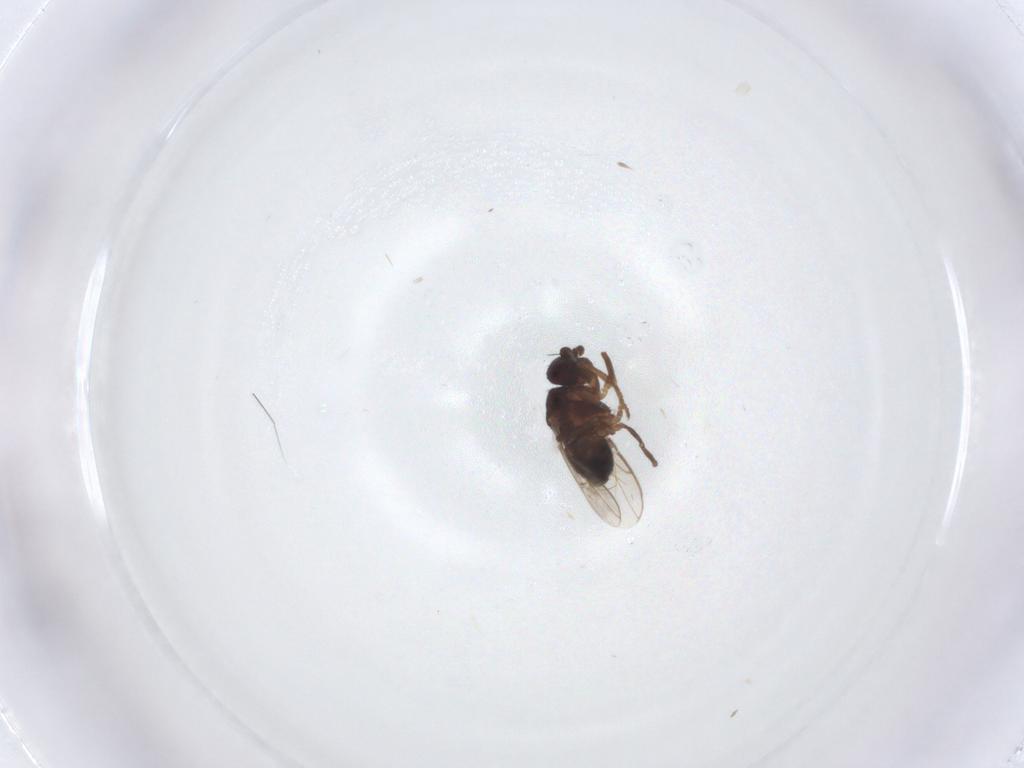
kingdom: Animalia
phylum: Arthropoda
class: Insecta
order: Diptera
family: Sphaeroceridae
